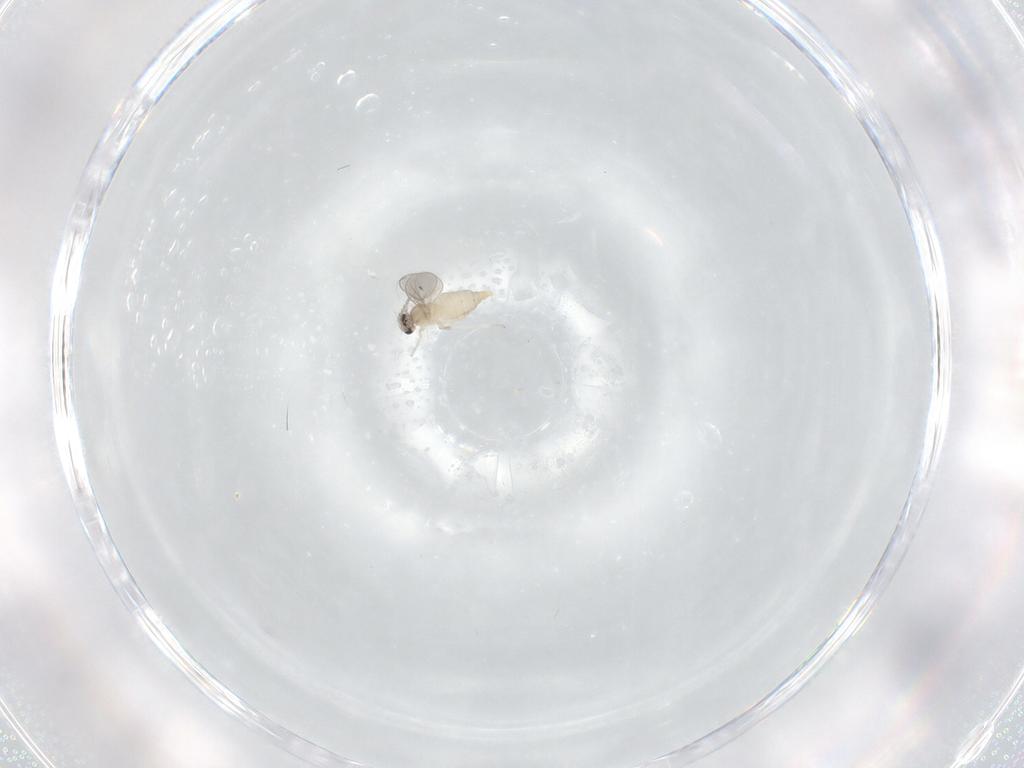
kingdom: Animalia
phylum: Arthropoda
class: Insecta
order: Diptera
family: Cecidomyiidae
